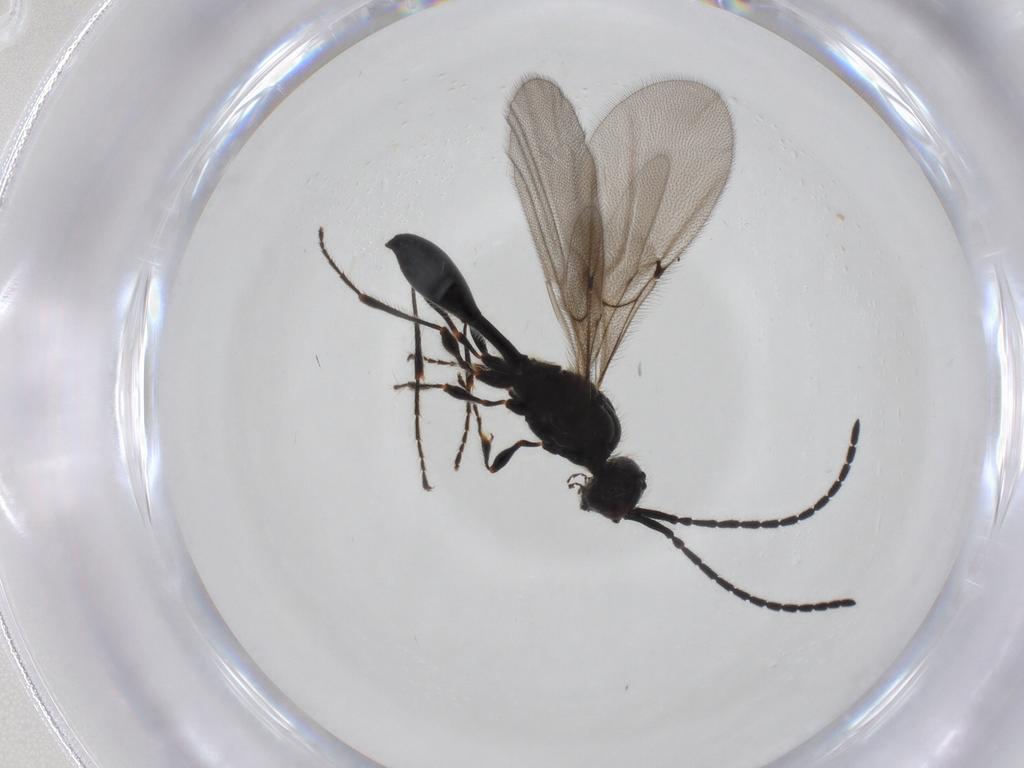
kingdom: Animalia
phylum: Arthropoda
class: Insecta
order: Hymenoptera
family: Diapriidae
